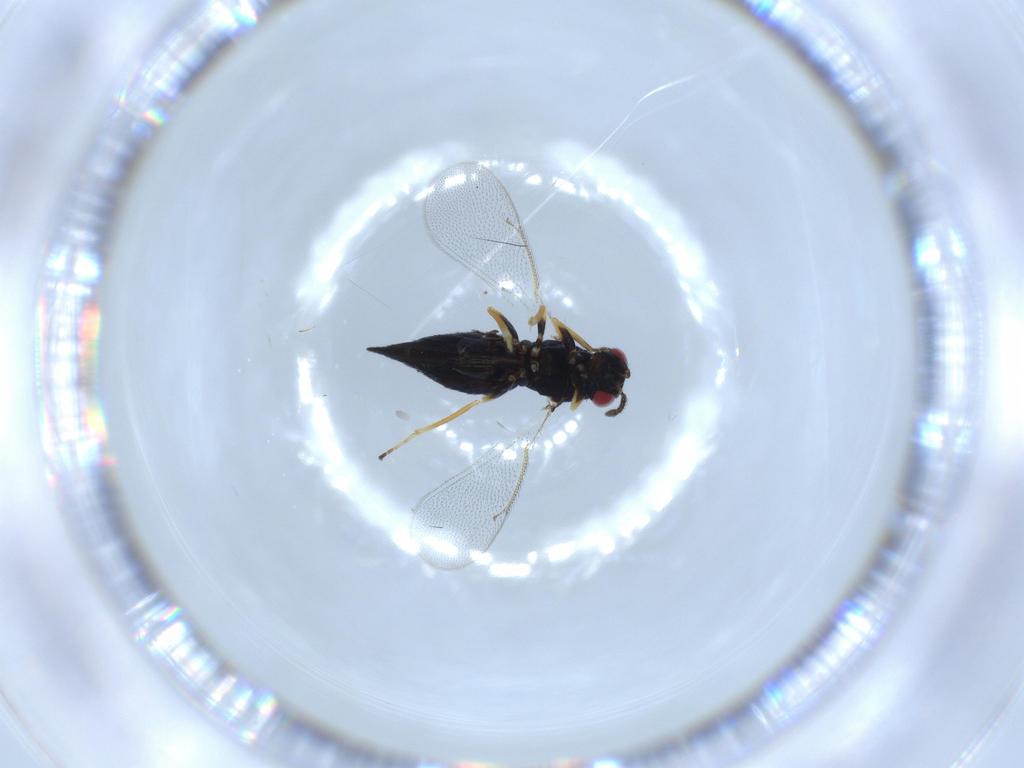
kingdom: Animalia
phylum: Arthropoda
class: Insecta
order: Hymenoptera
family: Eulophidae
